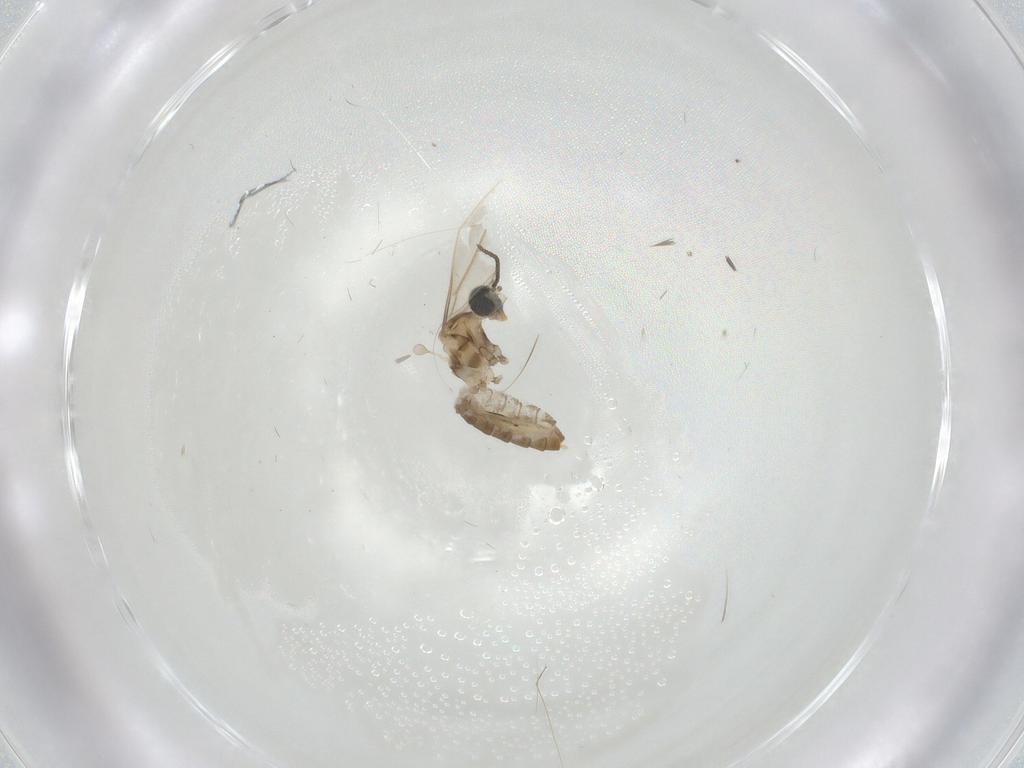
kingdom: Animalia
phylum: Arthropoda
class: Insecta
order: Diptera
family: Cecidomyiidae
